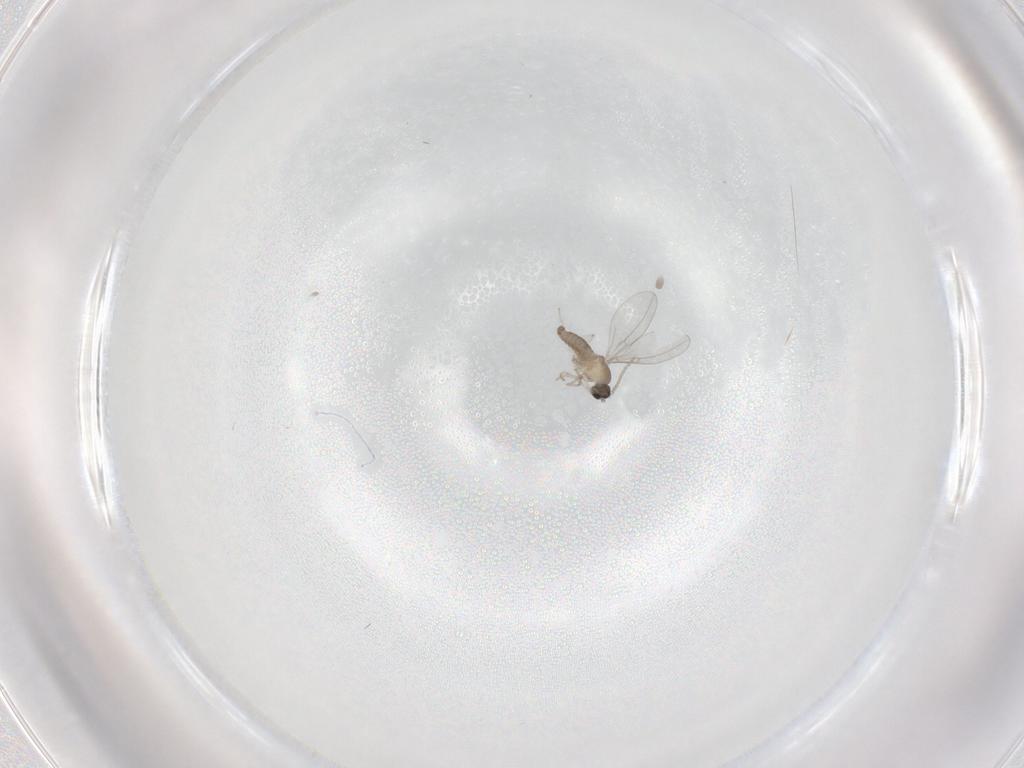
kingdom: Animalia
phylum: Arthropoda
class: Insecta
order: Diptera
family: Cecidomyiidae
